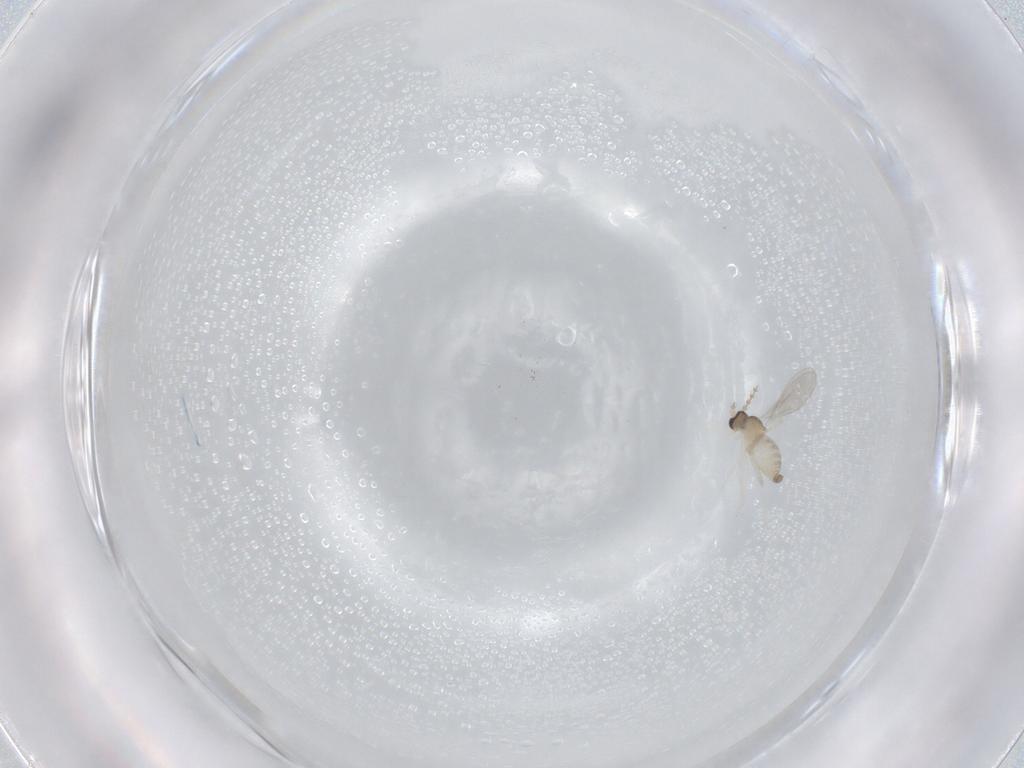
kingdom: Animalia
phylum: Arthropoda
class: Insecta
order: Diptera
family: Cecidomyiidae
